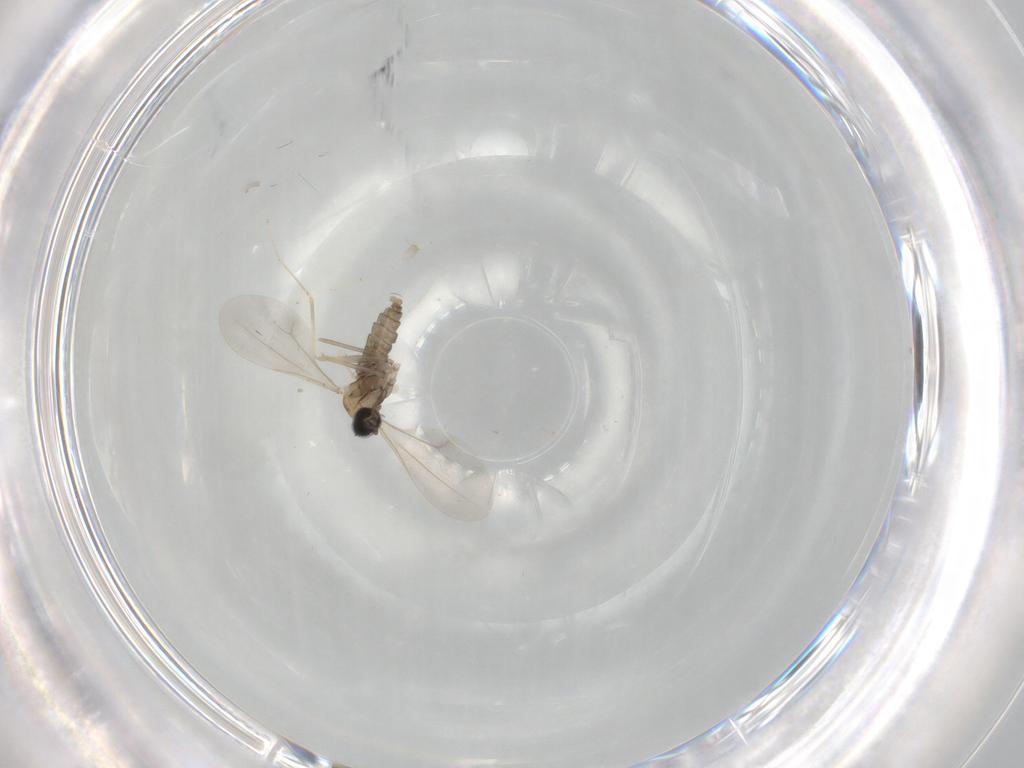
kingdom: Animalia
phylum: Arthropoda
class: Insecta
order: Diptera
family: Cecidomyiidae
